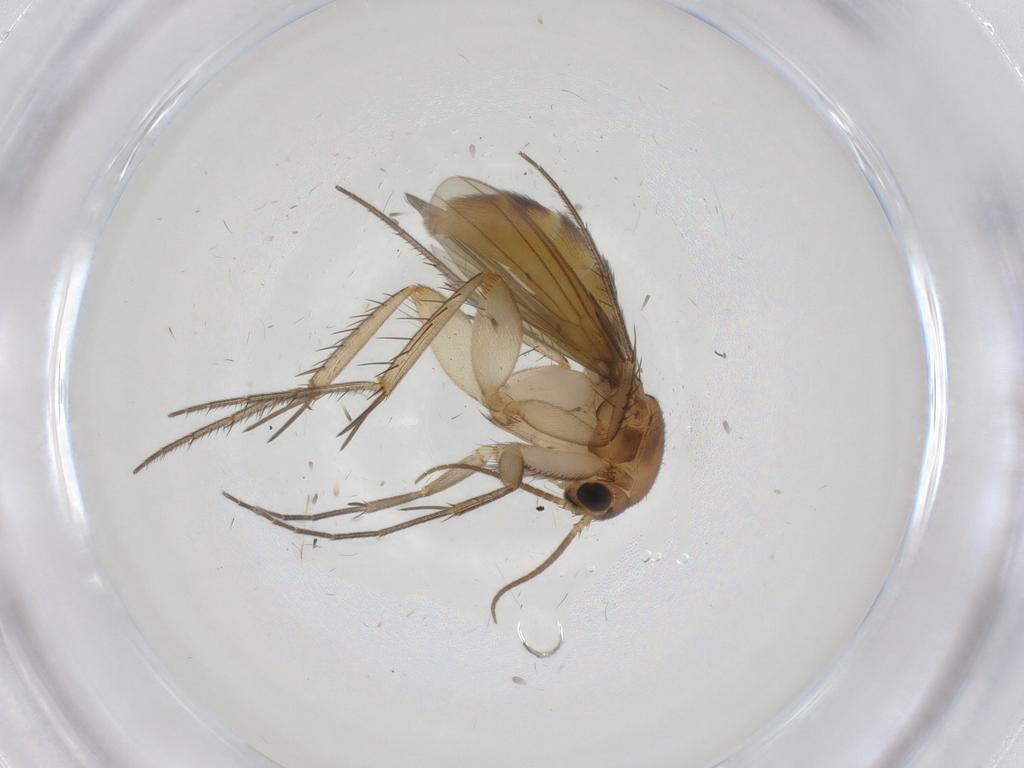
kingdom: Animalia
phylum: Arthropoda
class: Insecta
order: Diptera
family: Mycetophilidae
